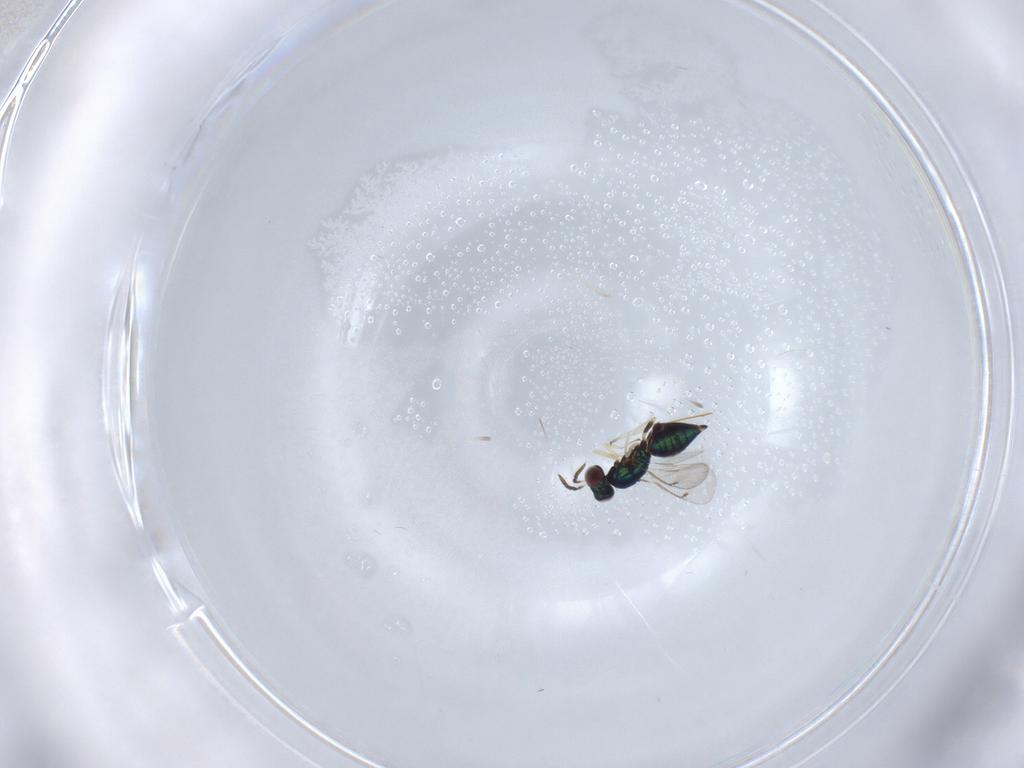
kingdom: Animalia
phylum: Arthropoda
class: Insecta
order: Hymenoptera
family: Eulophidae
